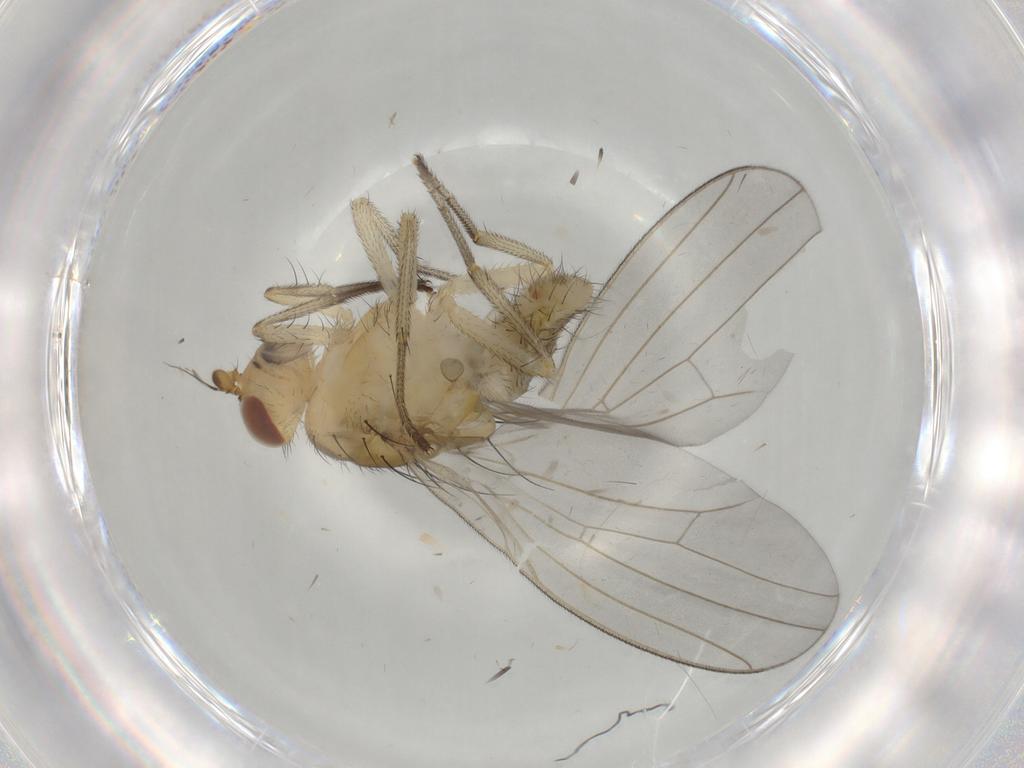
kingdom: Animalia
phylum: Arthropoda
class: Insecta
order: Diptera
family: Lauxaniidae
